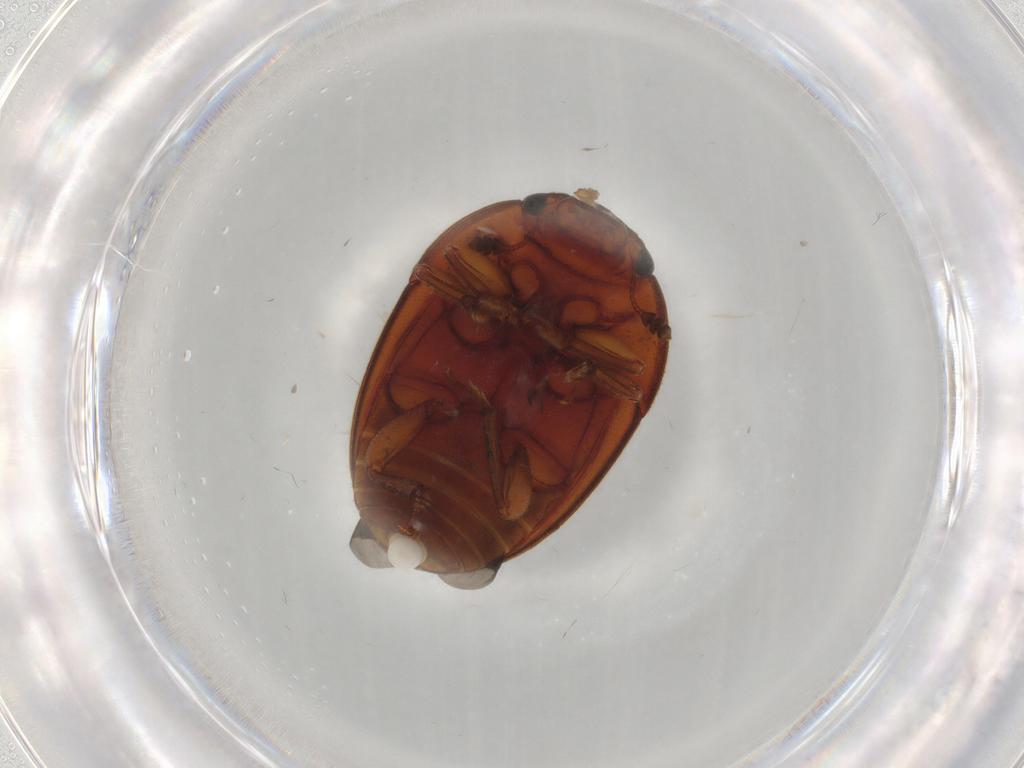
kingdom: Animalia
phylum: Arthropoda
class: Insecta
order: Coleoptera
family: Nitidulidae
